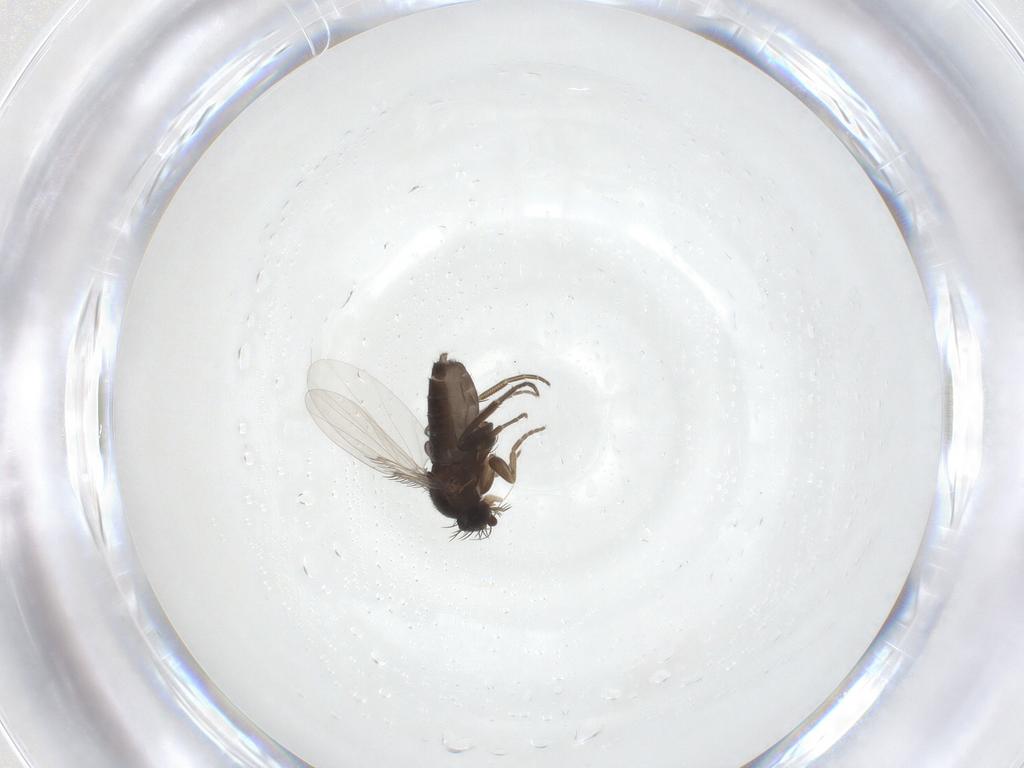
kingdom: Animalia
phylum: Arthropoda
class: Insecta
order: Diptera
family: Phoridae
